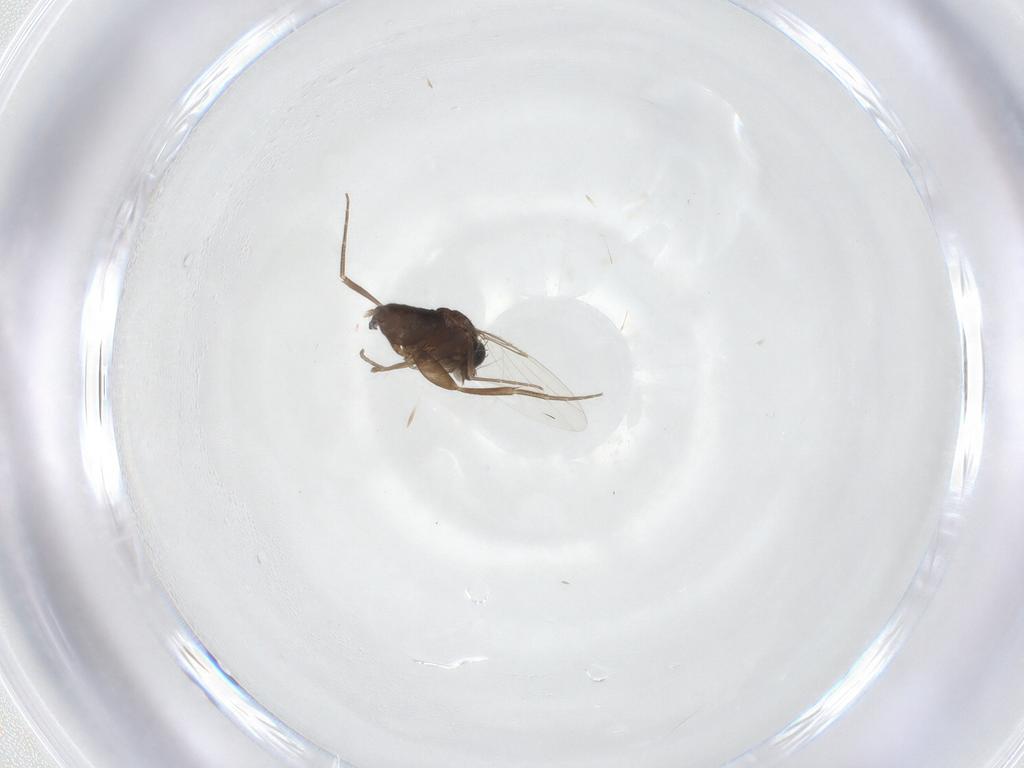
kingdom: Animalia
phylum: Arthropoda
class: Insecta
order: Diptera
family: Phoridae
